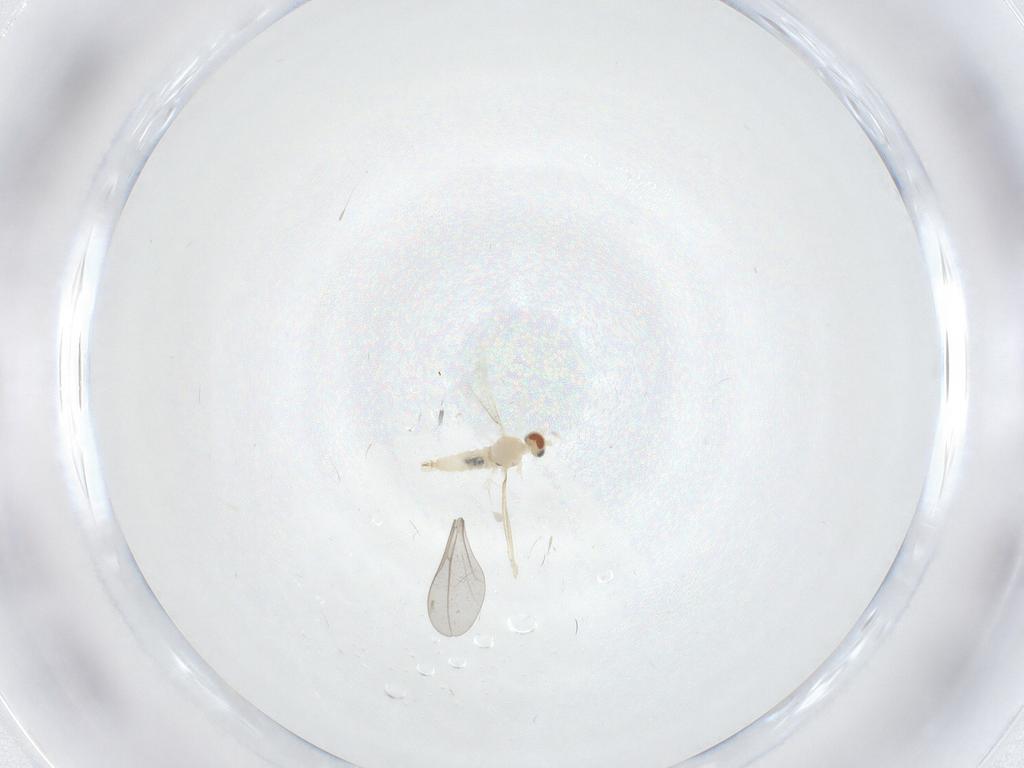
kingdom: Animalia
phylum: Arthropoda
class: Insecta
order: Diptera
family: Cecidomyiidae
